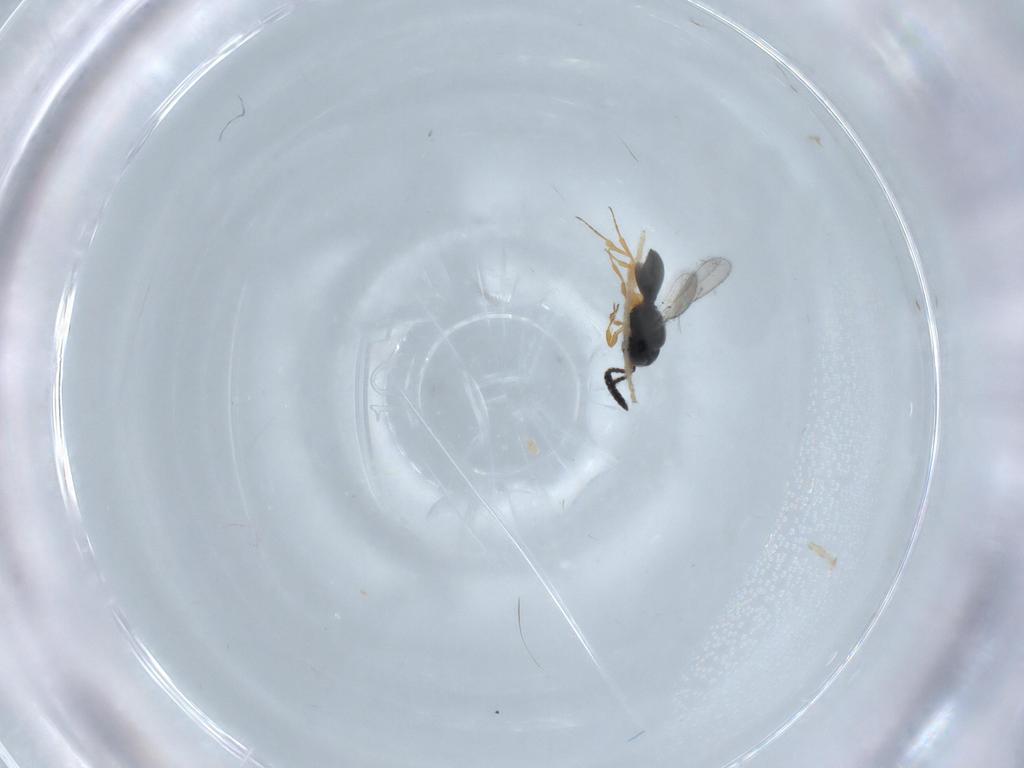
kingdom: Animalia
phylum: Arthropoda
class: Insecta
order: Hymenoptera
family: Scelionidae
